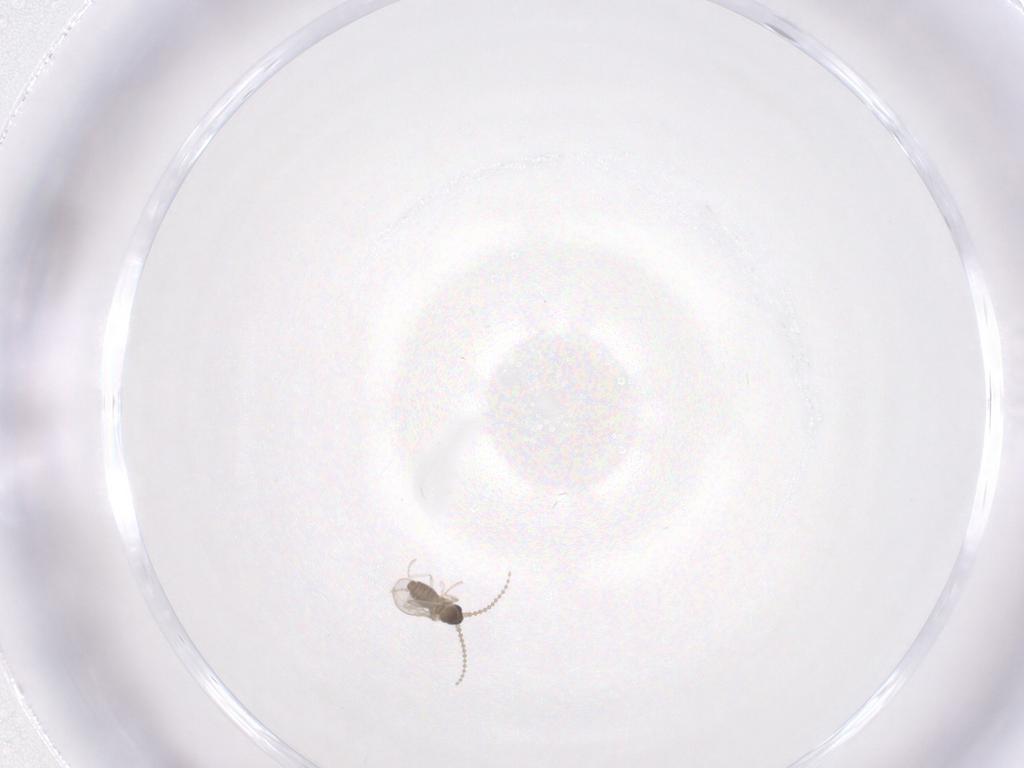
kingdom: Animalia
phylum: Arthropoda
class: Insecta
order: Diptera
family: Cecidomyiidae
